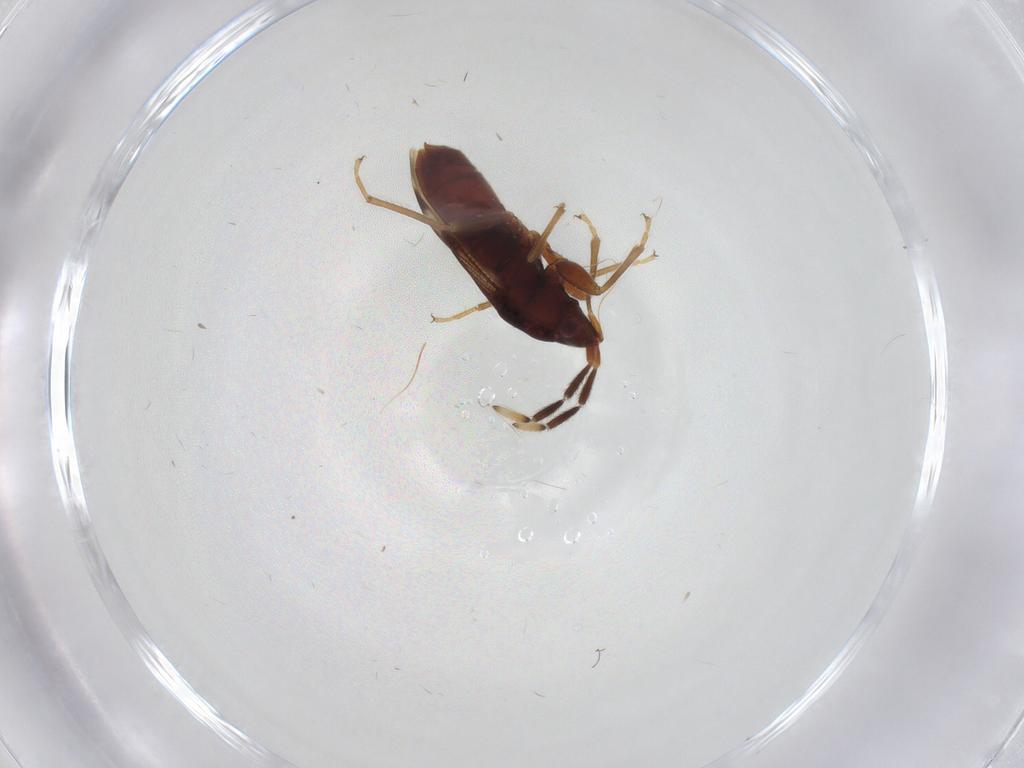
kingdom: Animalia
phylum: Arthropoda
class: Insecta
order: Hemiptera
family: Rhyparochromidae
